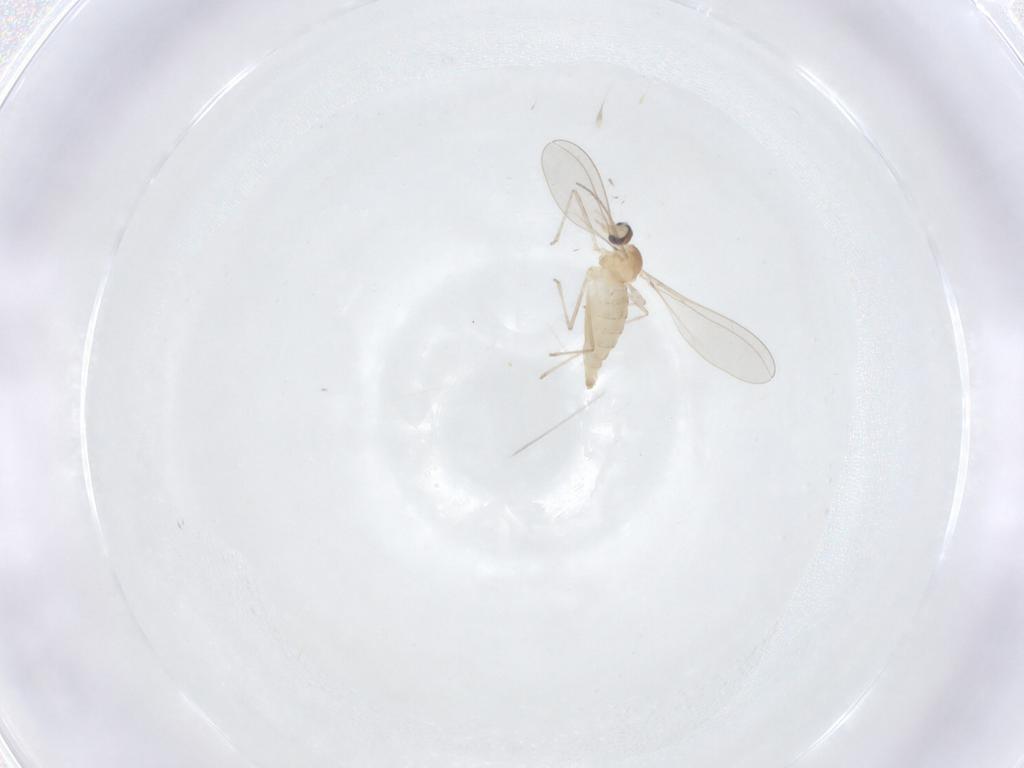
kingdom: Animalia
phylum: Arthropoda
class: Insecta
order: Diptera
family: Cecidomyiidae
